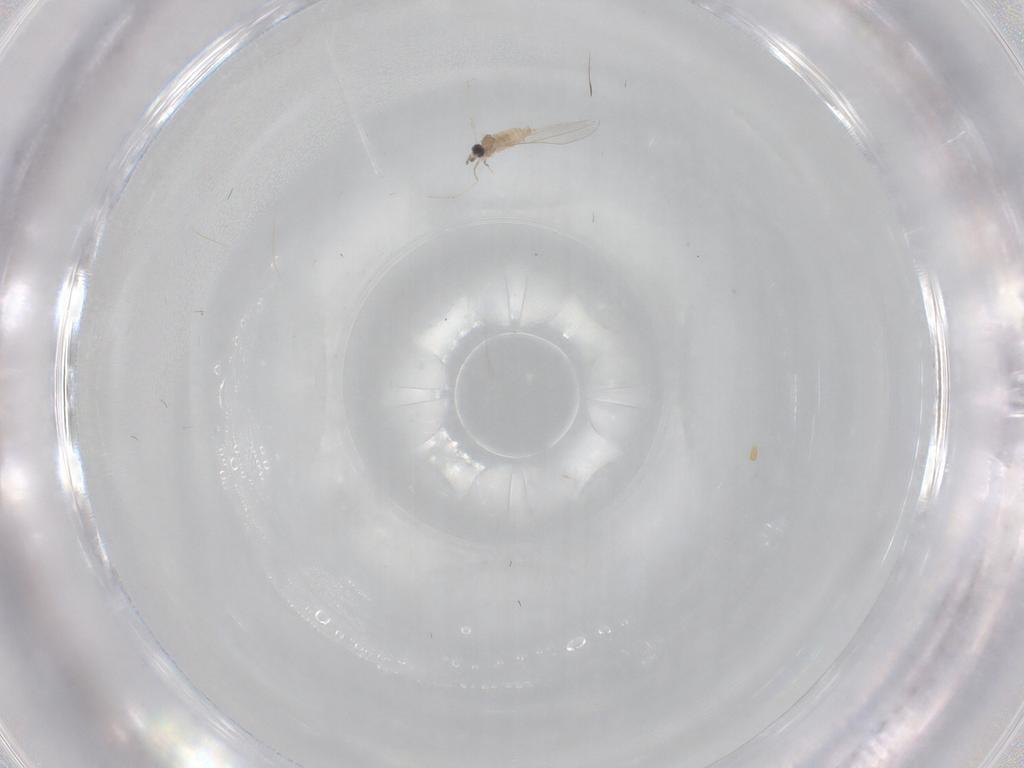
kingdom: Animalia
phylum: Arthropoda
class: Insecta
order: Diptera
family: Cecidomyiidae
